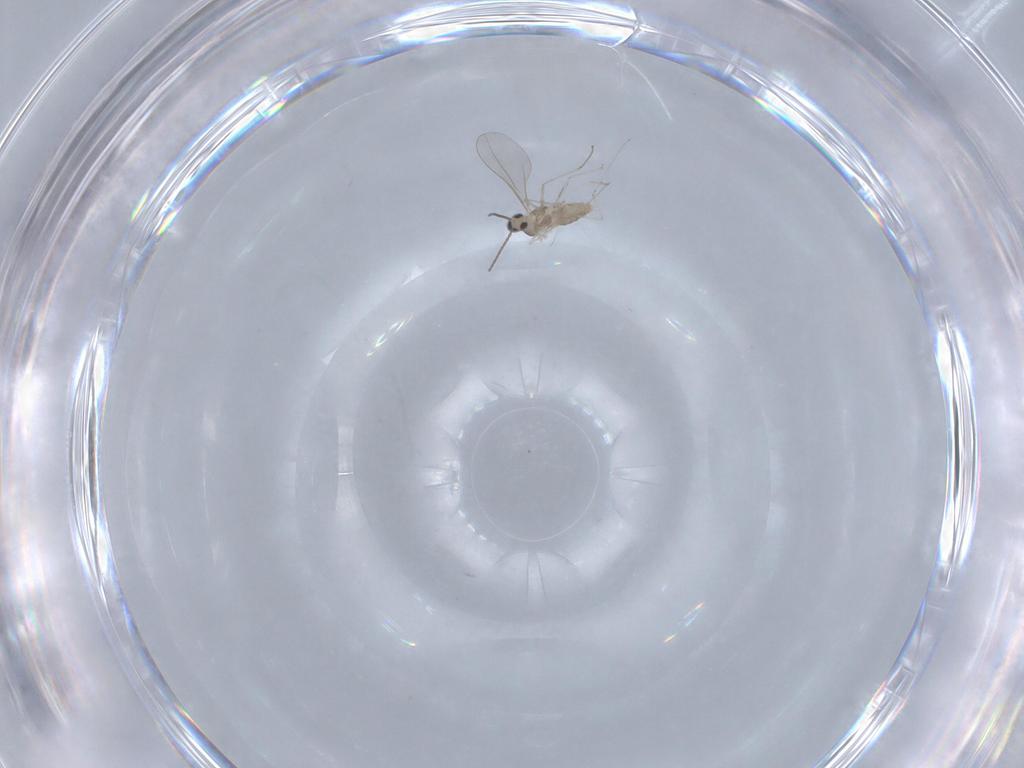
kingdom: Animalia
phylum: Arthropoda
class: Insecta
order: Diptera
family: Cecidomyiidae
